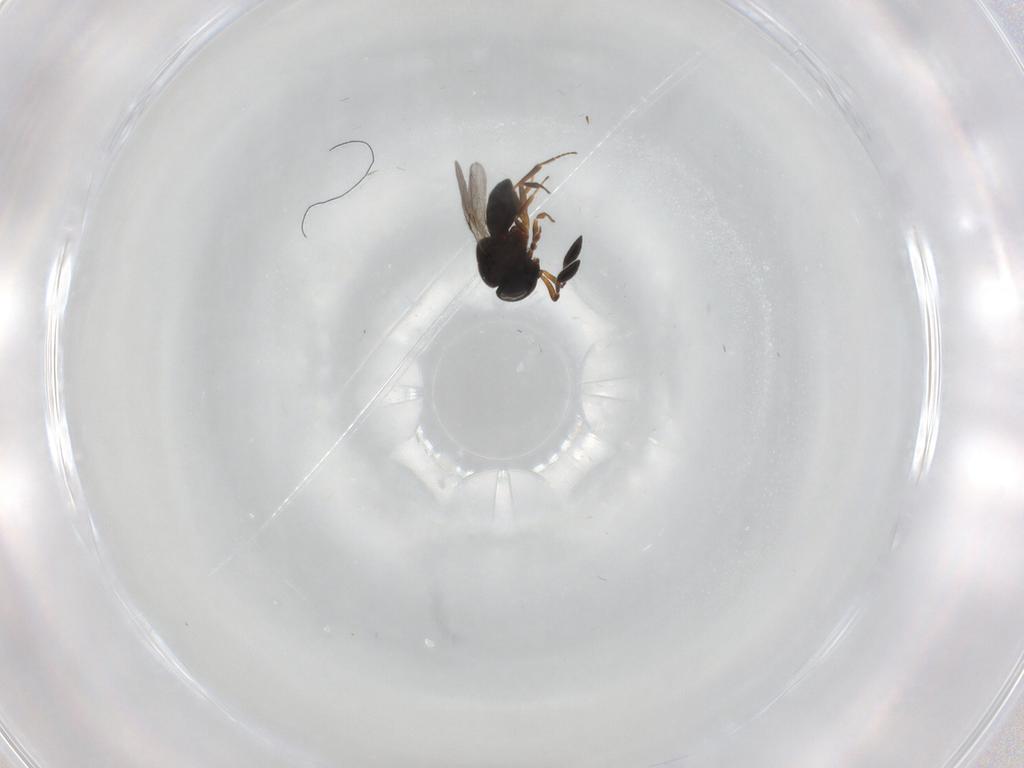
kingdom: Animalia
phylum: Arthropoda
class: Insecta
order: Hymenoptera
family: Scelionidae
